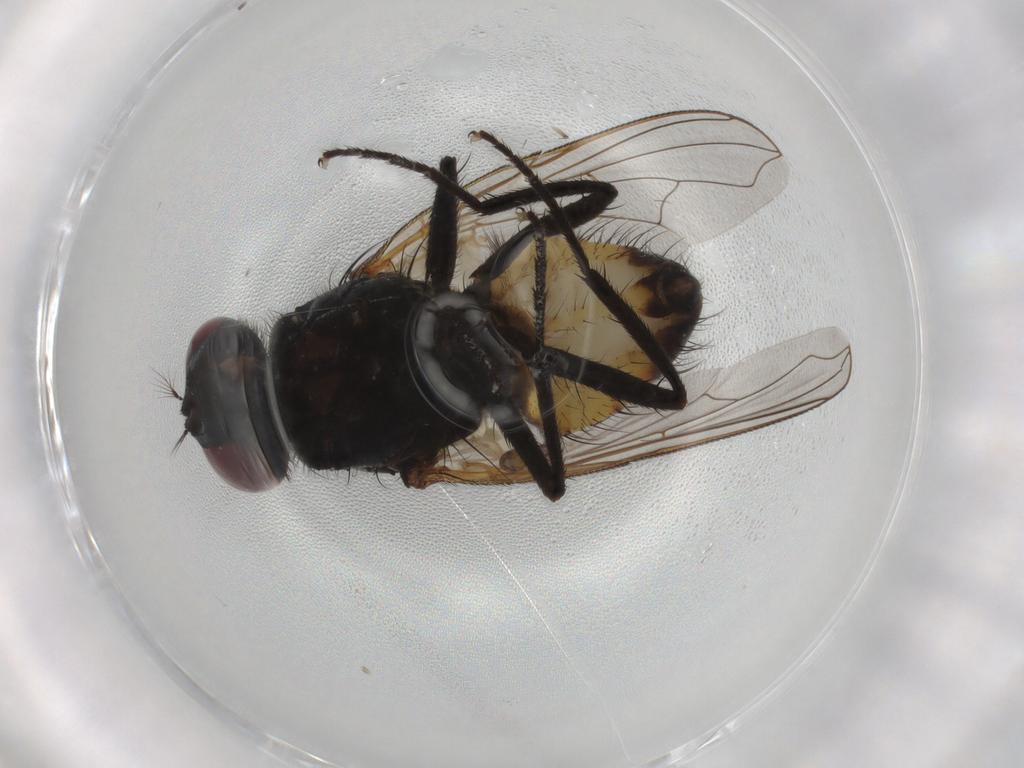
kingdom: Animalia
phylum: Arthropoda
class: Insecta
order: Diptera
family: Muscidae
